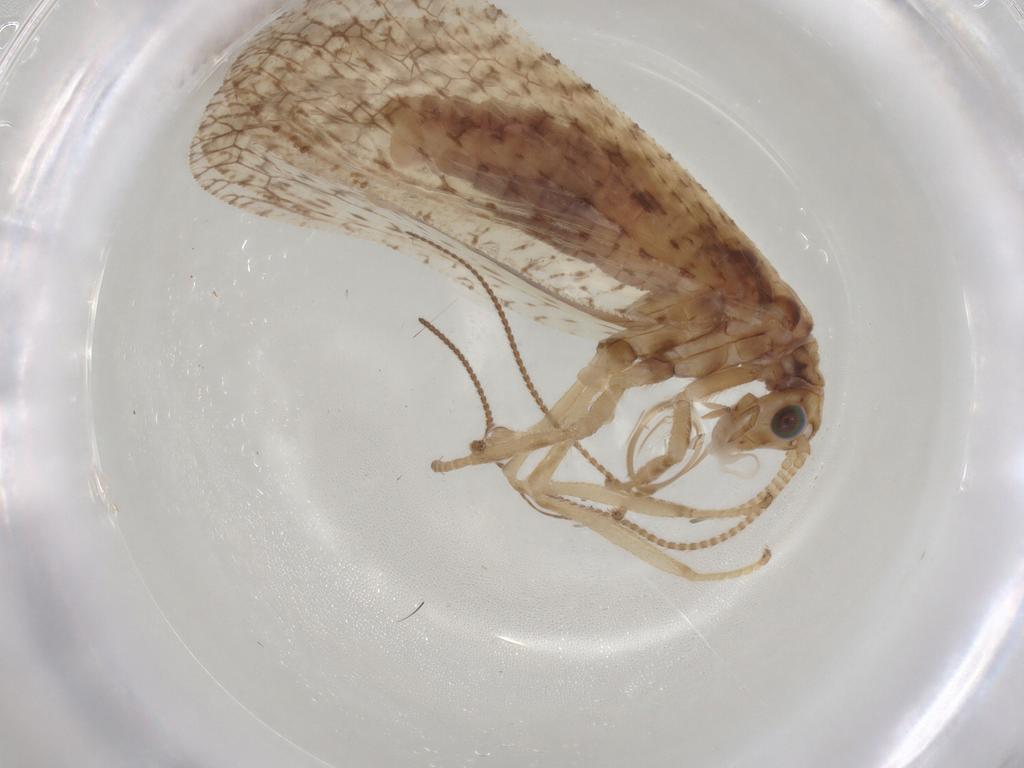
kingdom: Animalia
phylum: Arthropoda
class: Insecta
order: Neuroptera
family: Hemerobiidae
